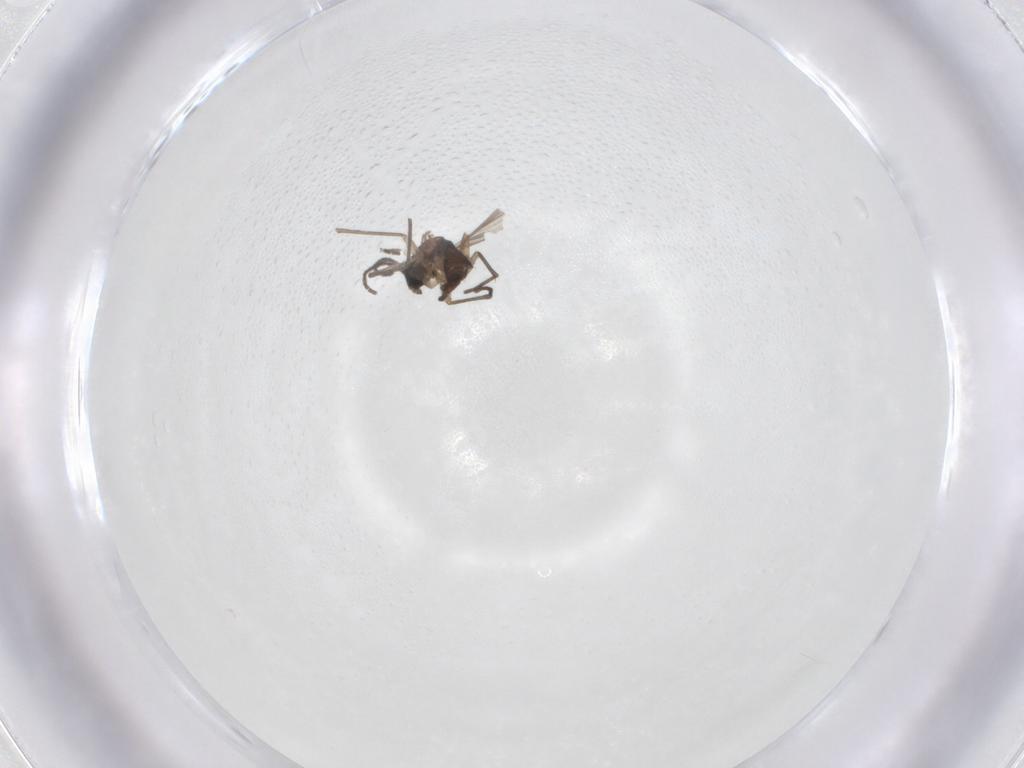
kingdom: Animalia
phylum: Arthropoda
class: Insecta
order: Diptera
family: Chironomidae
